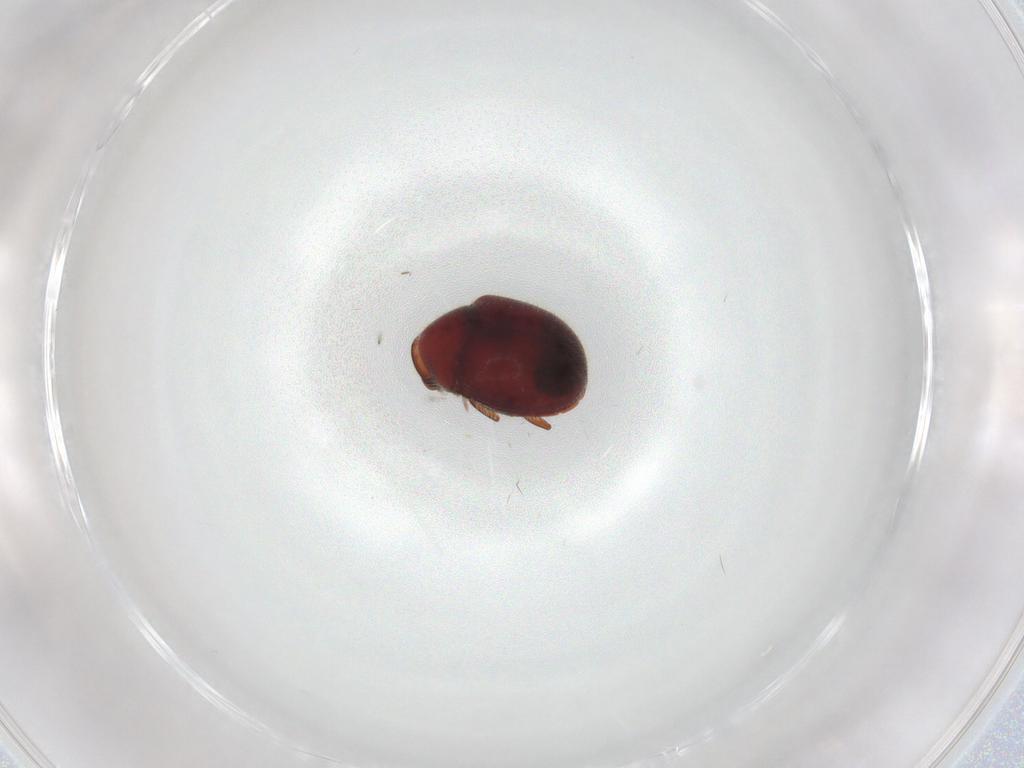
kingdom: Animalia
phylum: Arthropoda
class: Insecta
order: Coleoptera
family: Ptinidae
